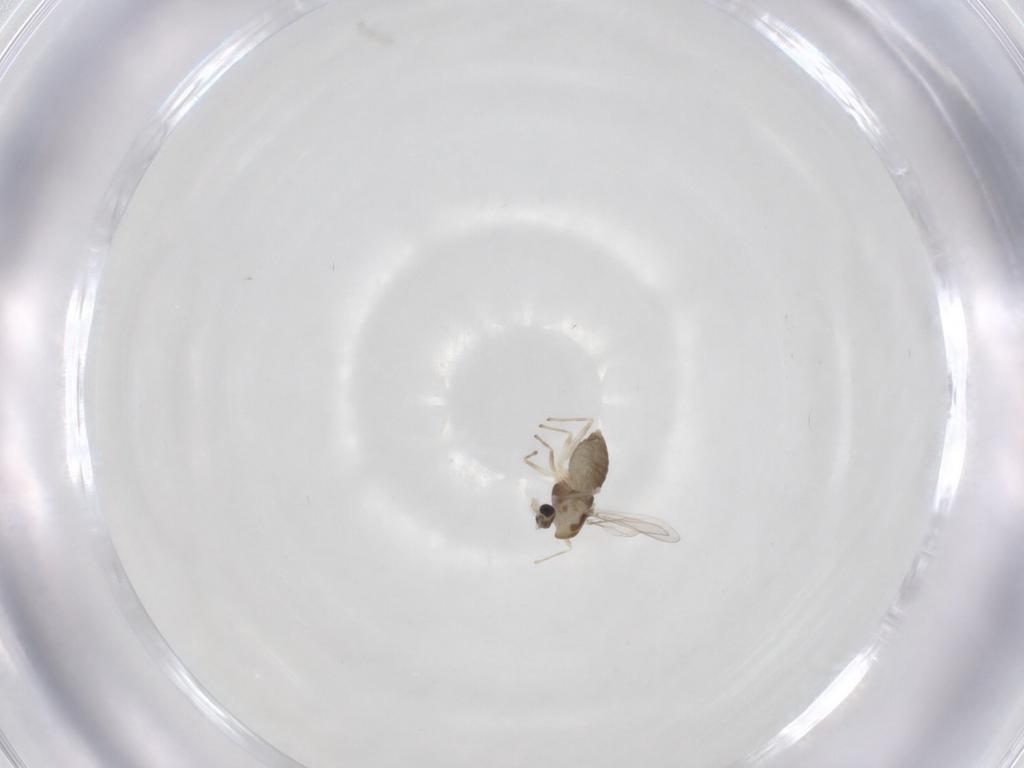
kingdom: Animalia
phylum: Arthropoda
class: Insecta
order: Diptera
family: Chironomidae
